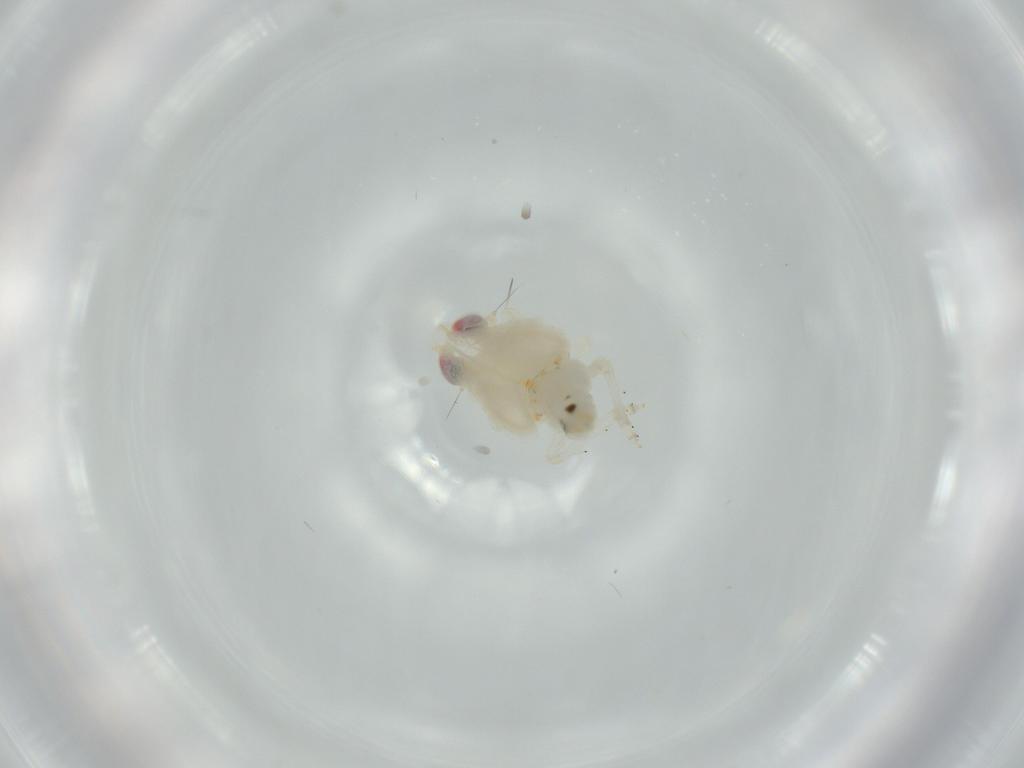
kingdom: Animalia
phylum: Arthropoda
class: Insecta
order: Hemiptera
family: Nogodinidae
